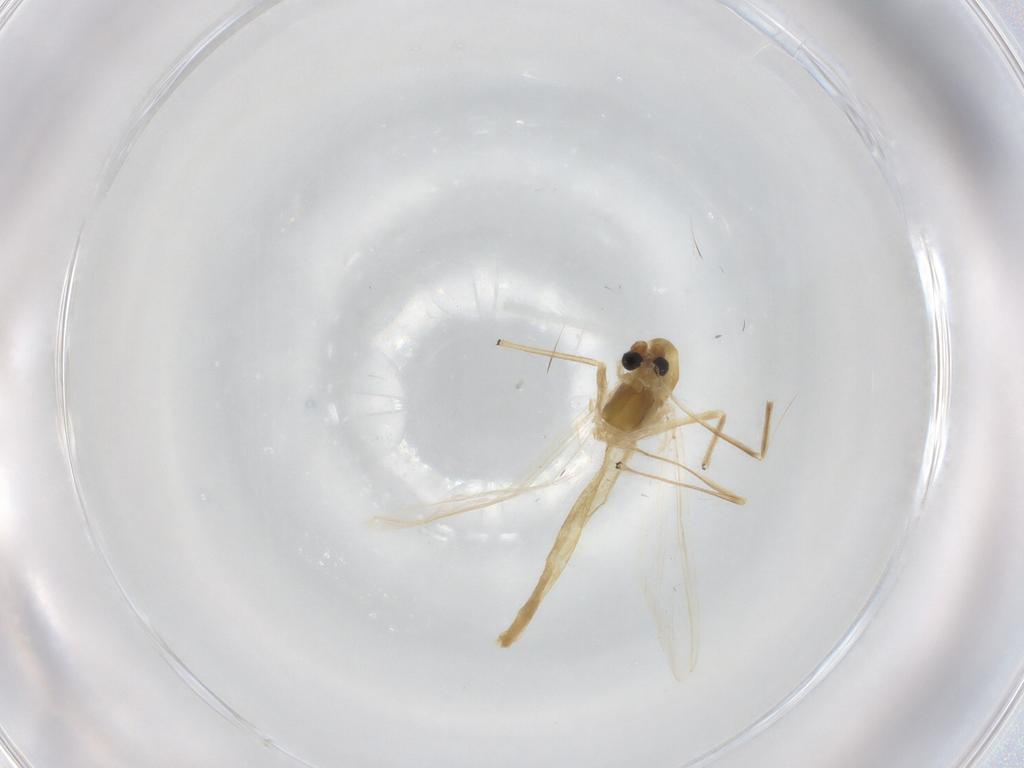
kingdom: Animalia
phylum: Arthropoda
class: Insecta
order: Diptera
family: Chironomidae
